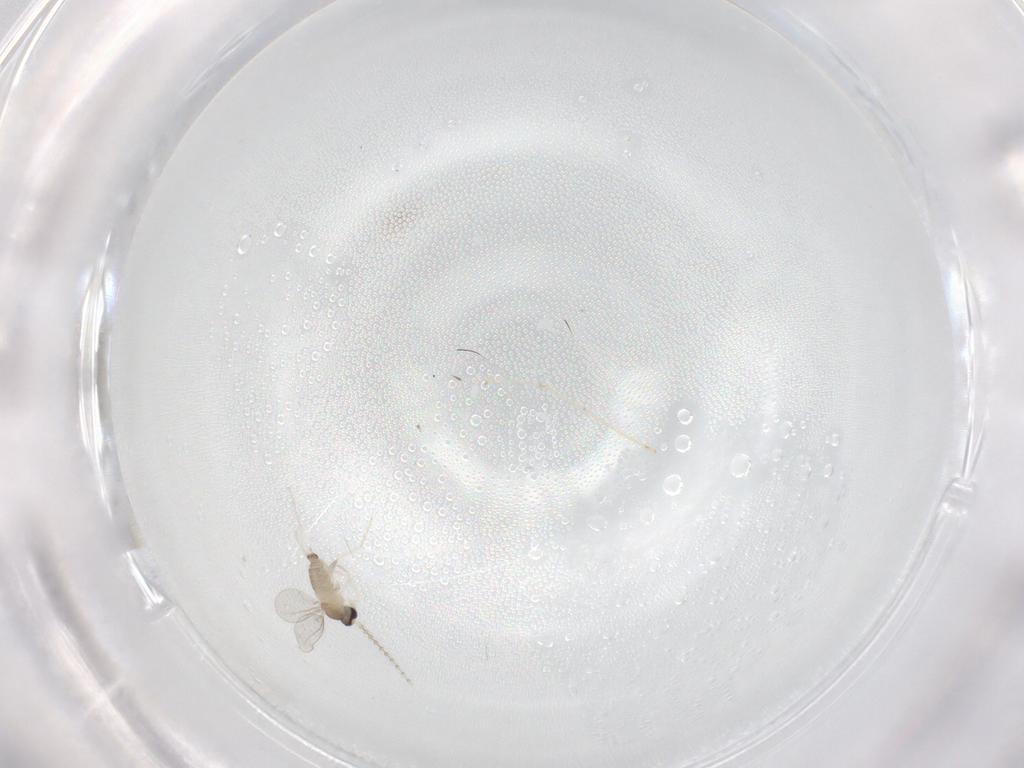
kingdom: Animalia
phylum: Arthropoda
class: Insecta
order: Diptera
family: Cecidomyiidae
